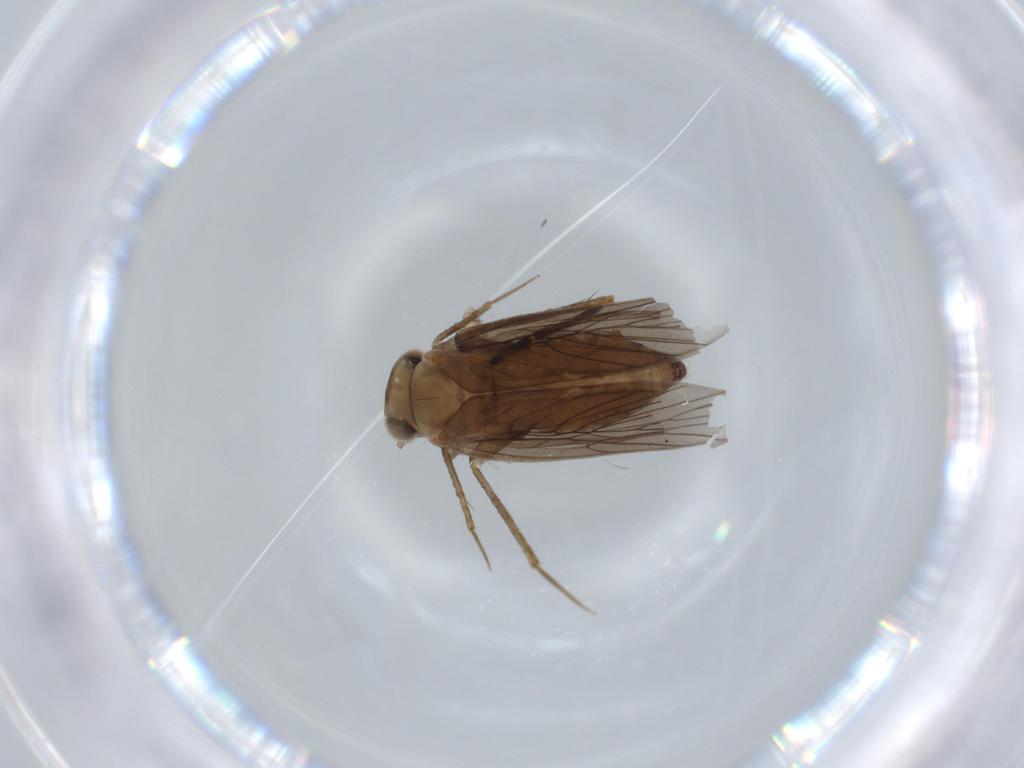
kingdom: Animalia
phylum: Arthropoda
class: Insecta
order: Psocodea
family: Lepidopsocidae
